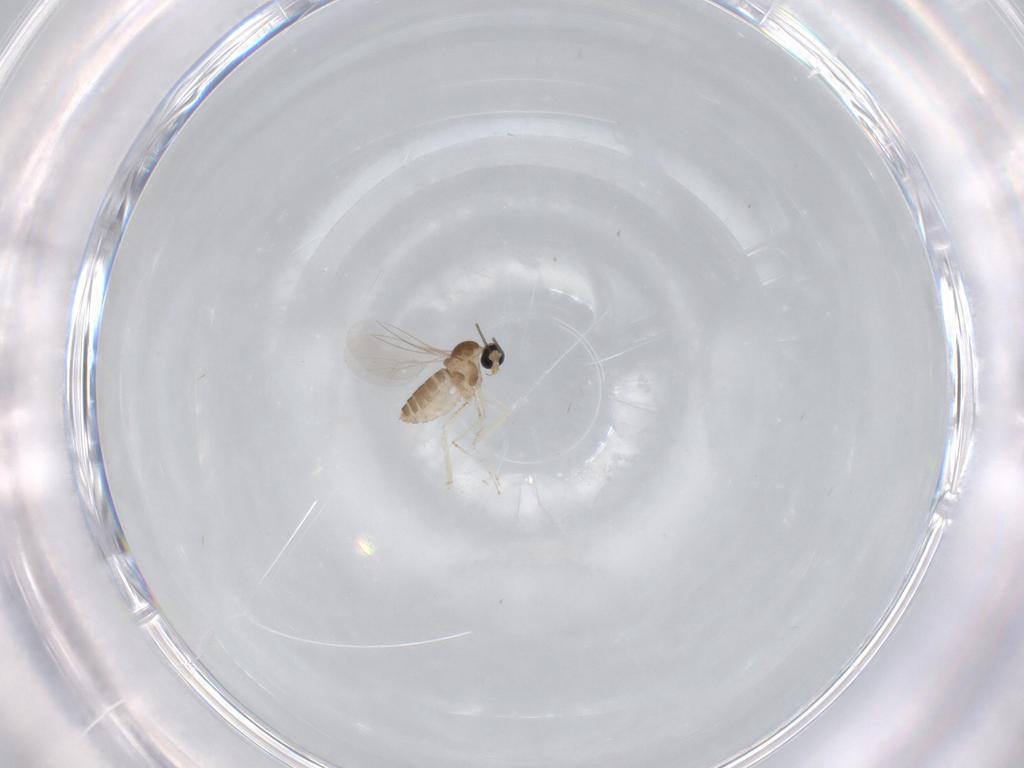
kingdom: Animalia
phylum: Arthropoda
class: Insecta
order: Diptera
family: Cecidomyiidae
